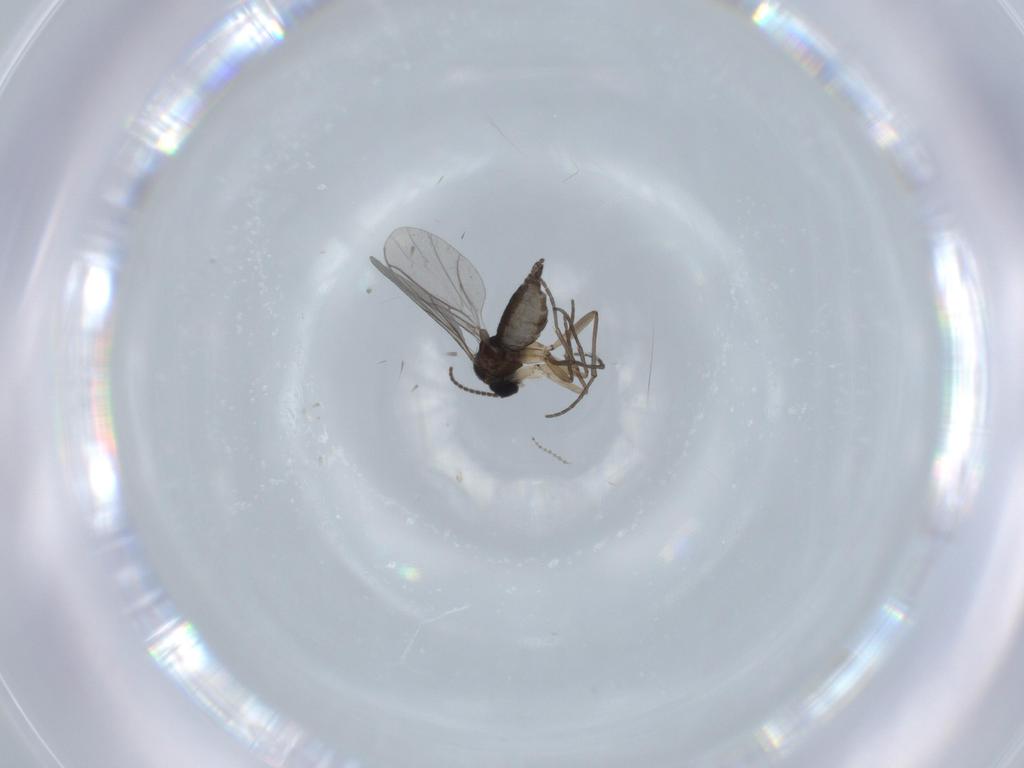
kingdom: Animalia
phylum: Arthropoda
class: Insecta
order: Diptera
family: Sciaridae
